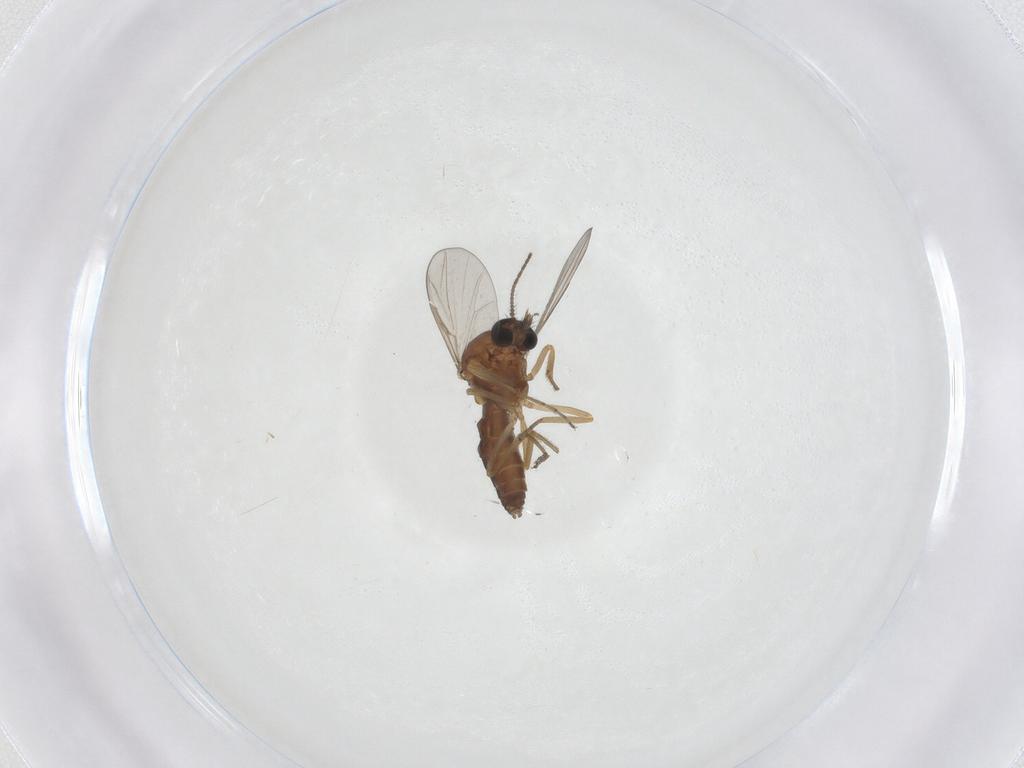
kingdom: Animalia
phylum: Arthropoda
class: Insecta
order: Diptera
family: Ceratopogonidae
